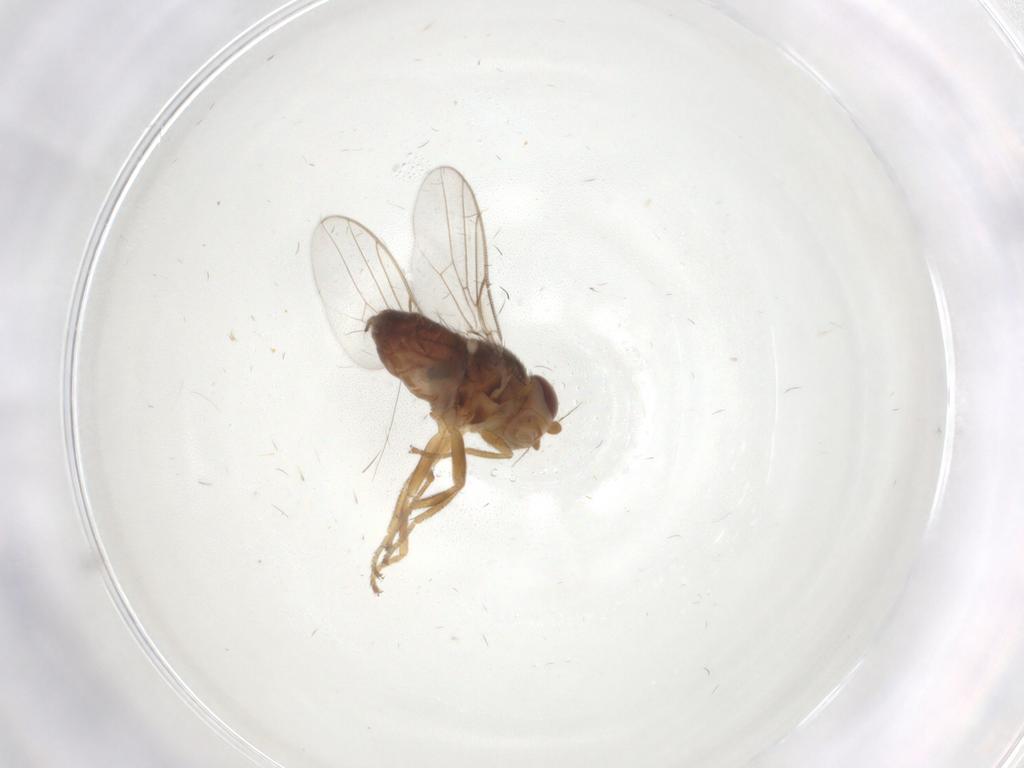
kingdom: Animalia
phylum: Arthropoda
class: Insecta
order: Diptera
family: Chloropidae
